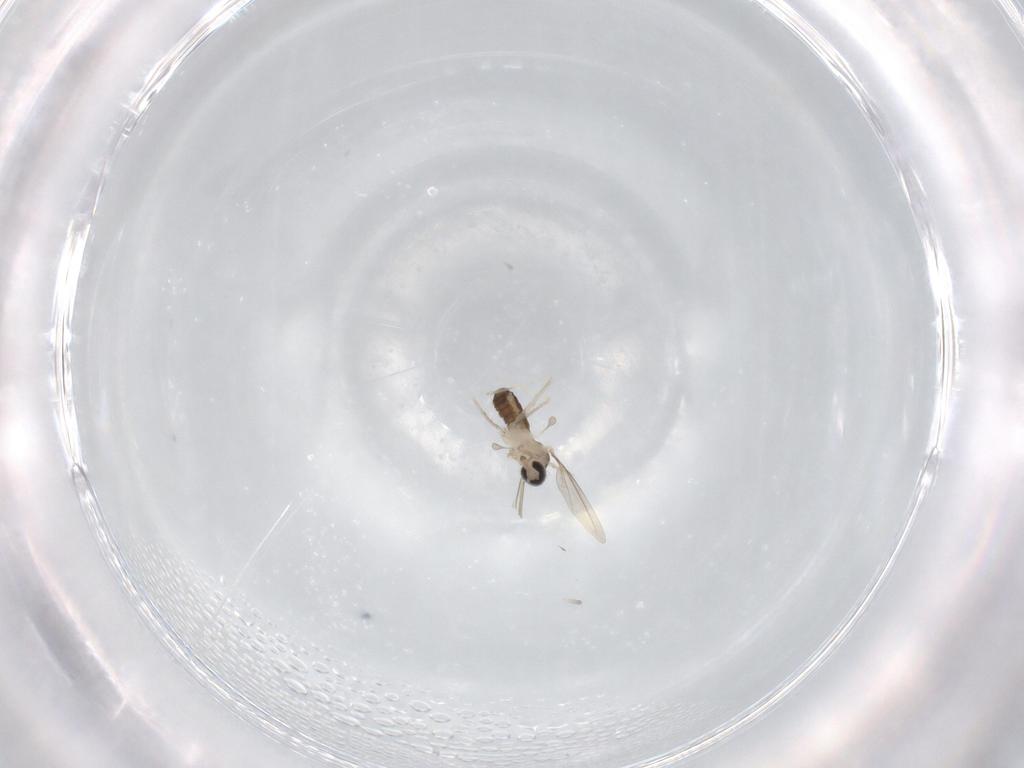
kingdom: Animalia
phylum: Arthropoda
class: Insecta
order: Diptera
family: Cecidomyiidae
